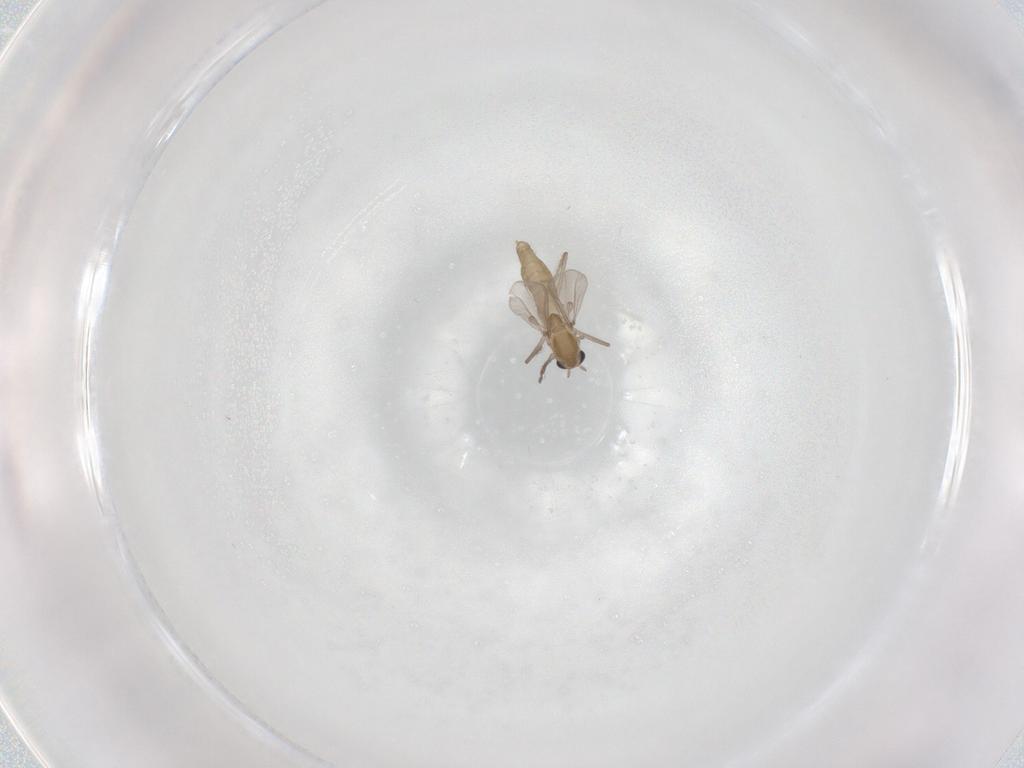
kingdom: Animalia
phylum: Arthropoda
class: Insecta
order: Diptera
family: Chironomidae
